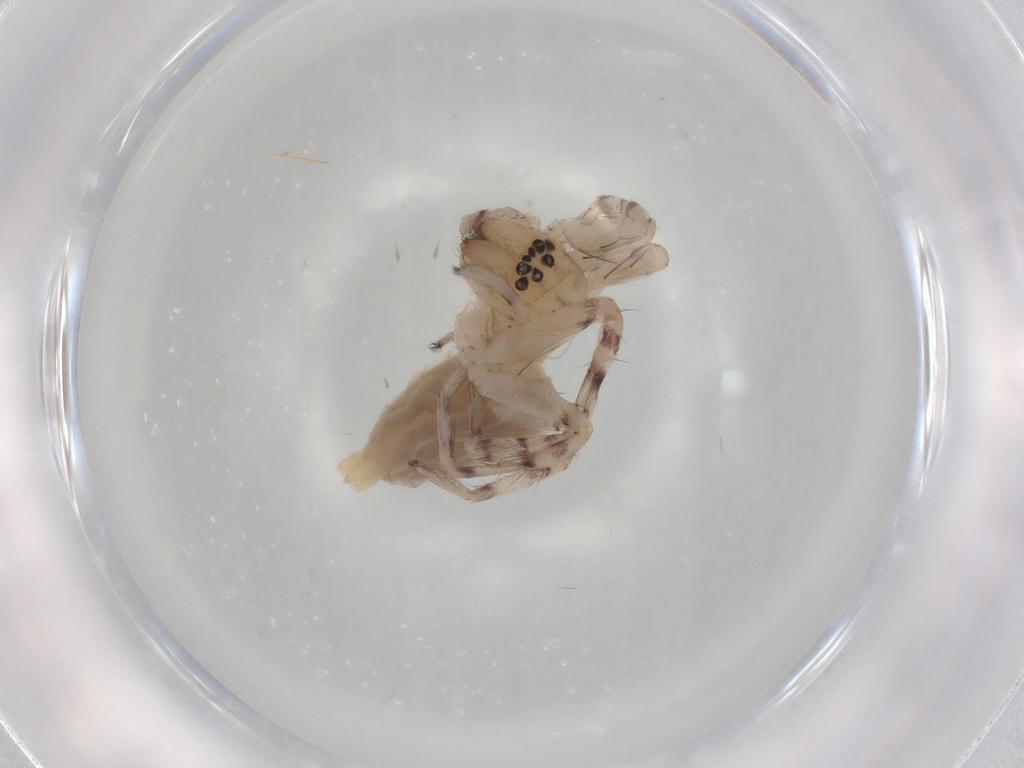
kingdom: Animalia
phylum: Arthropoda
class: Arachnida
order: Araneae
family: Anyphaenidae
